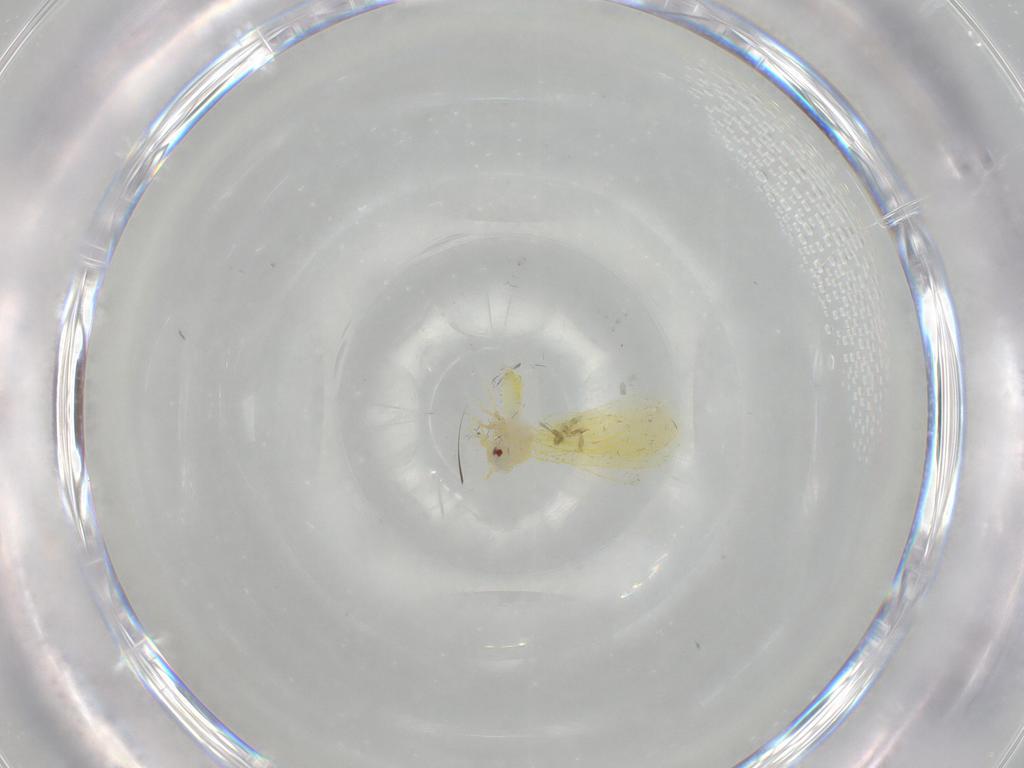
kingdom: Animalia
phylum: Arthropoda
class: Insecta
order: Hemiptera
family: Aleyrodidae
